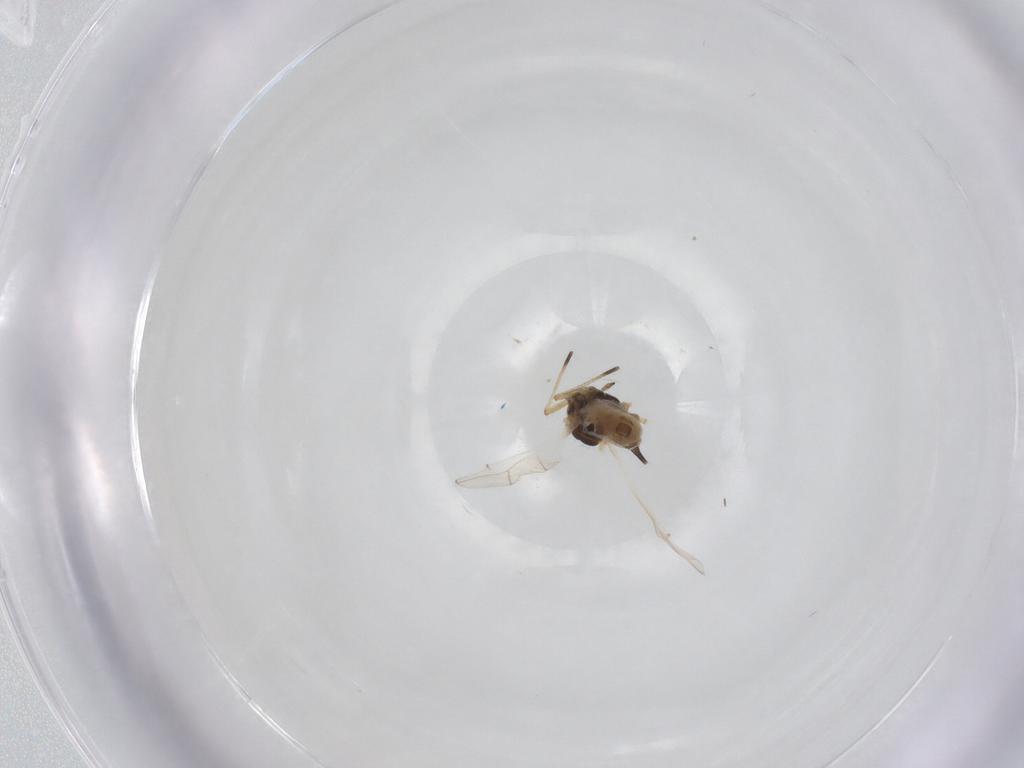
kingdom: Animalia
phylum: Arthropoda
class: Insecta
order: Hemiptera
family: Aphididae
